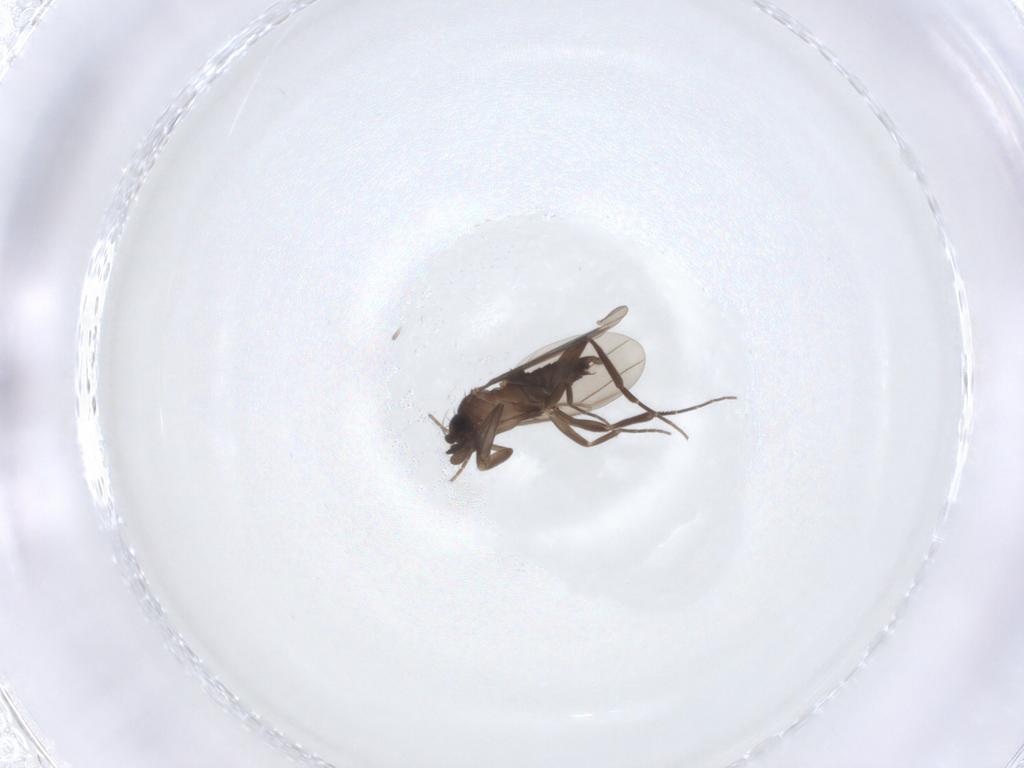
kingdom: Animalia
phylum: Arthropoda
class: Insecta
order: Diptera
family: Phoridae
